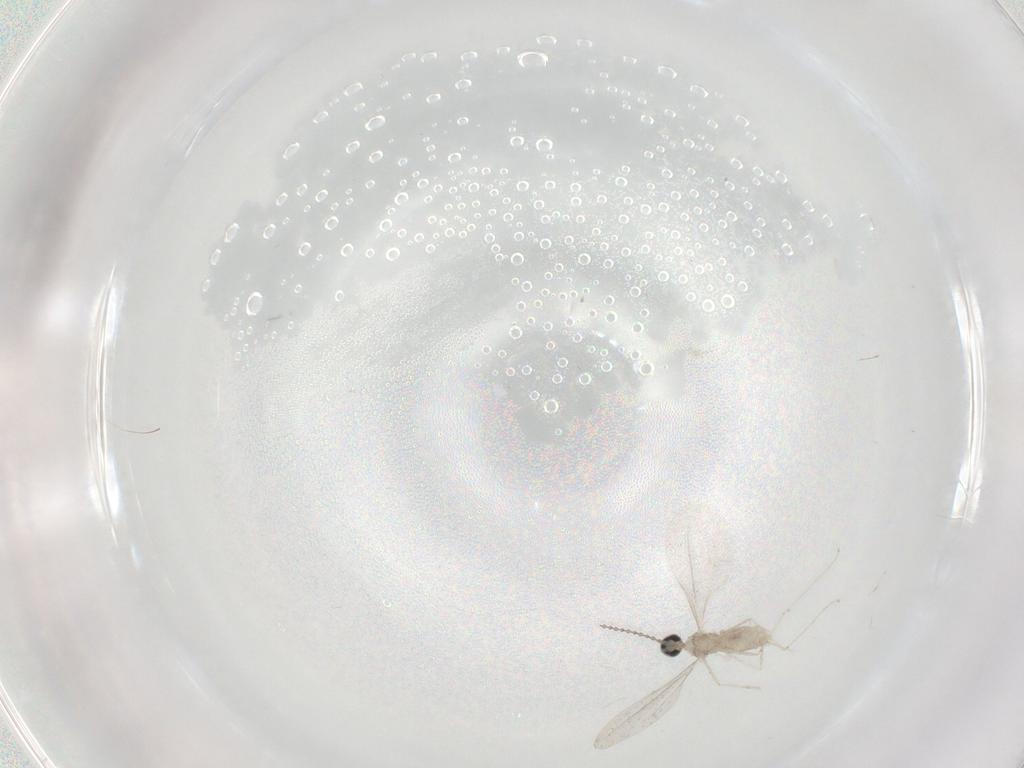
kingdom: Animalia
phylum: Arthropoda
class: Insecta
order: Diptera
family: Cecidomyiidae
